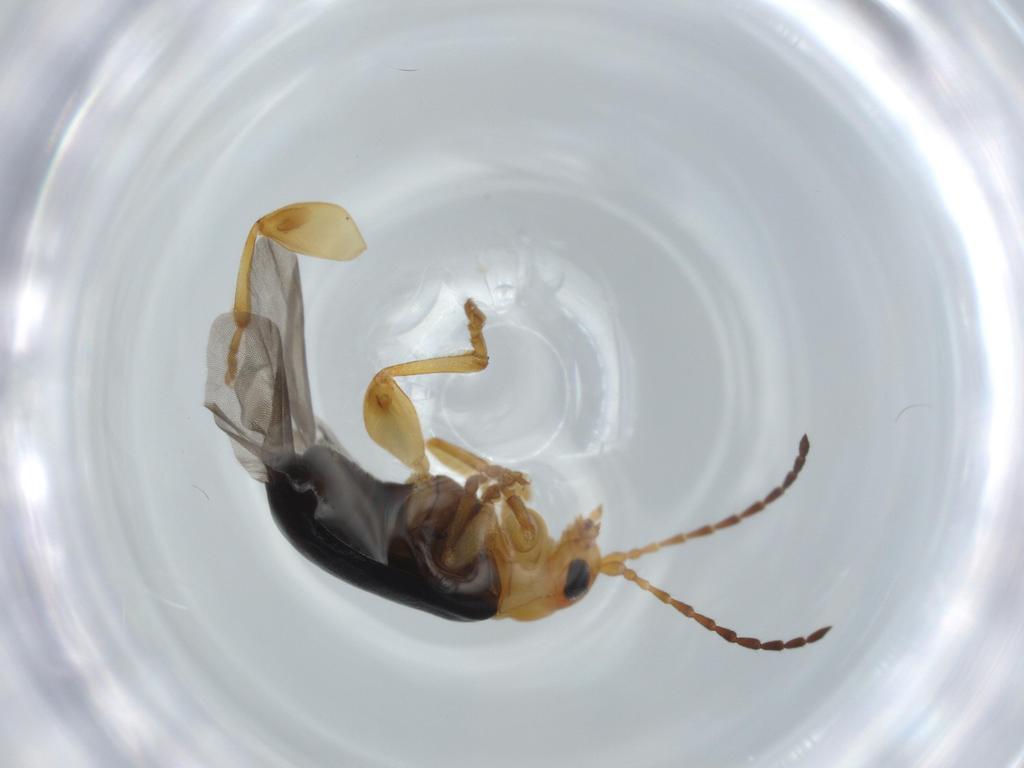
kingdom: Animalia
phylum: Arthropoda
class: Insecta
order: Coleoptera
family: Chrysomelidae
